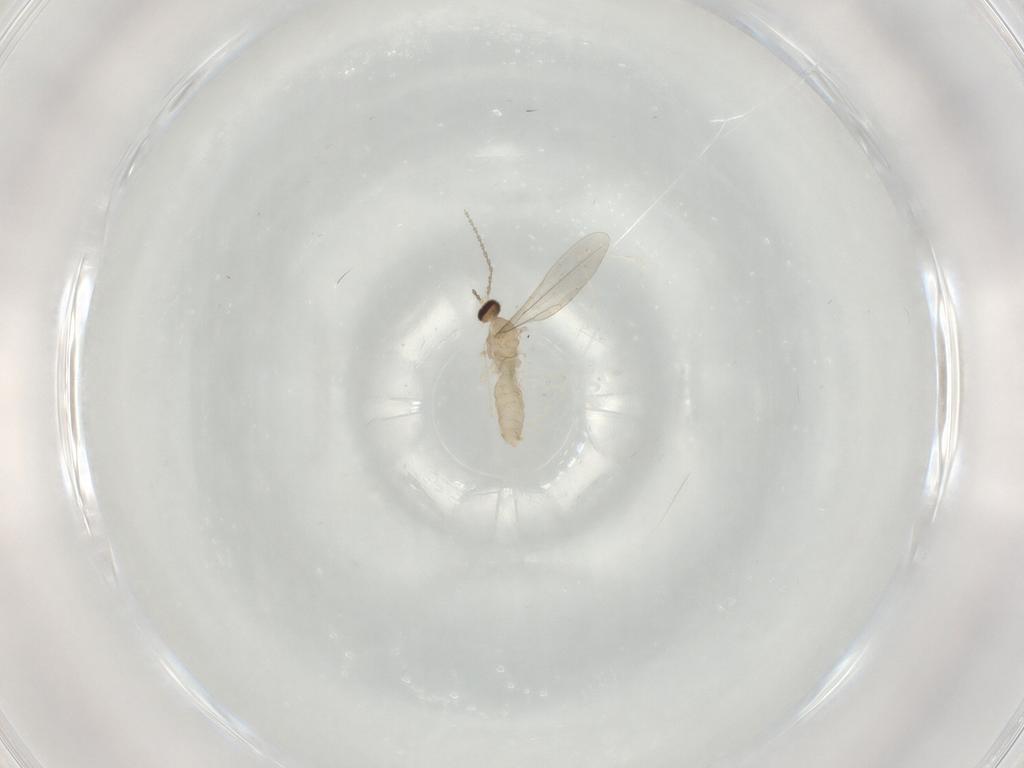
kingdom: Animalia
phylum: Arthropoda
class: Insecta
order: Diptera
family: Cecidomyiidae
